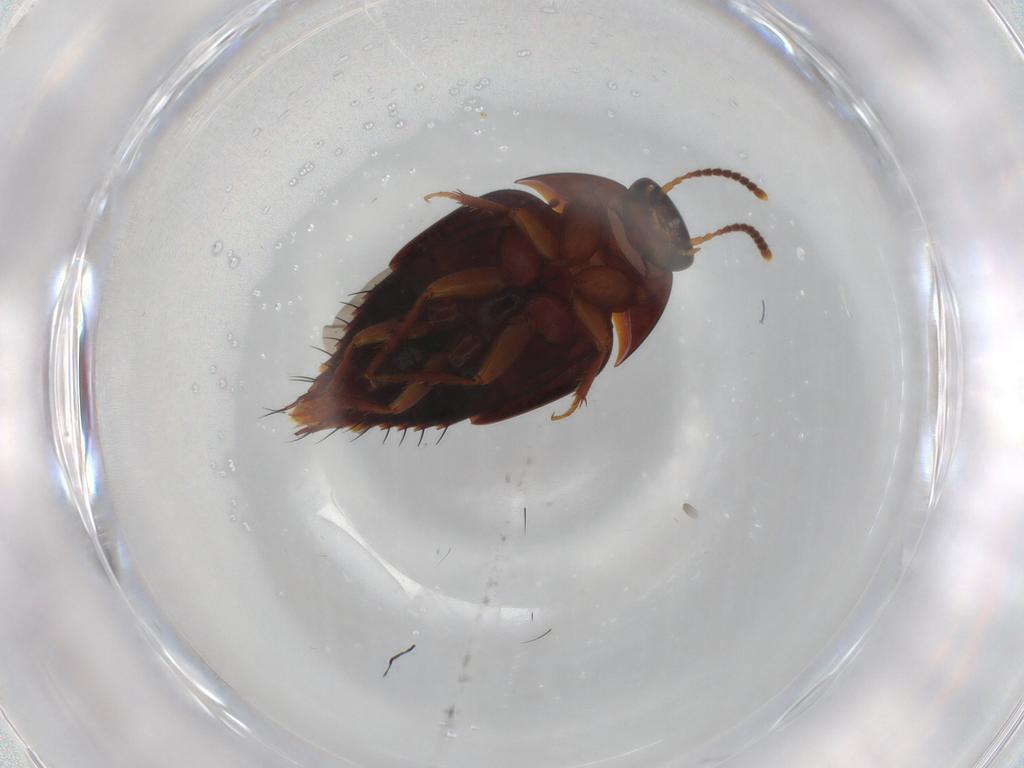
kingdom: Animalia
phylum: Arthropoda
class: Insecta
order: Coleoptera
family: Staphylinidae
